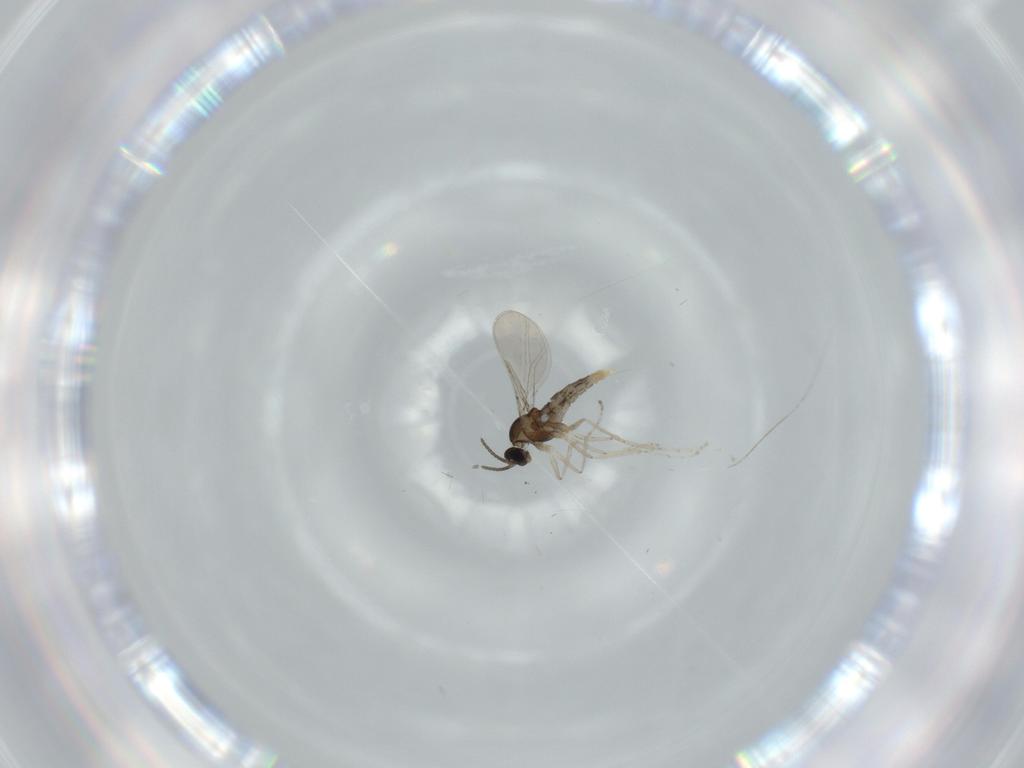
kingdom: Animalia
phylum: Arthropoda
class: Insecta
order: Diptera
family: Cecidomyiidae
